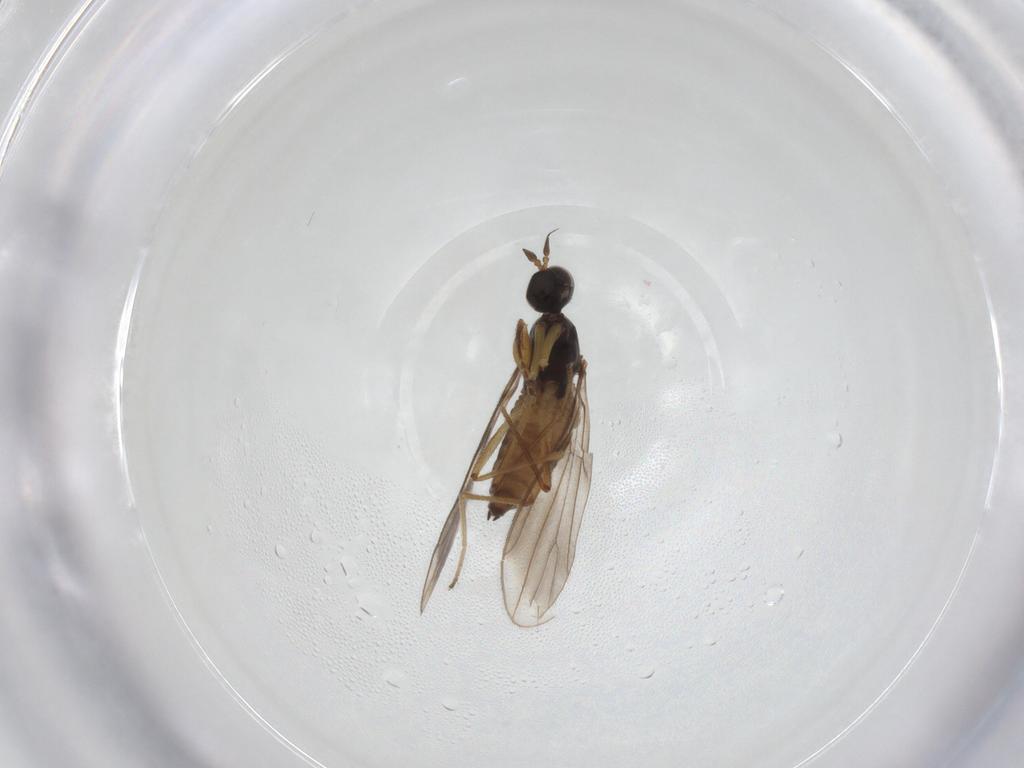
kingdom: Animalia
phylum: Arthropoda
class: Insecta
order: Diptera
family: Empididae
